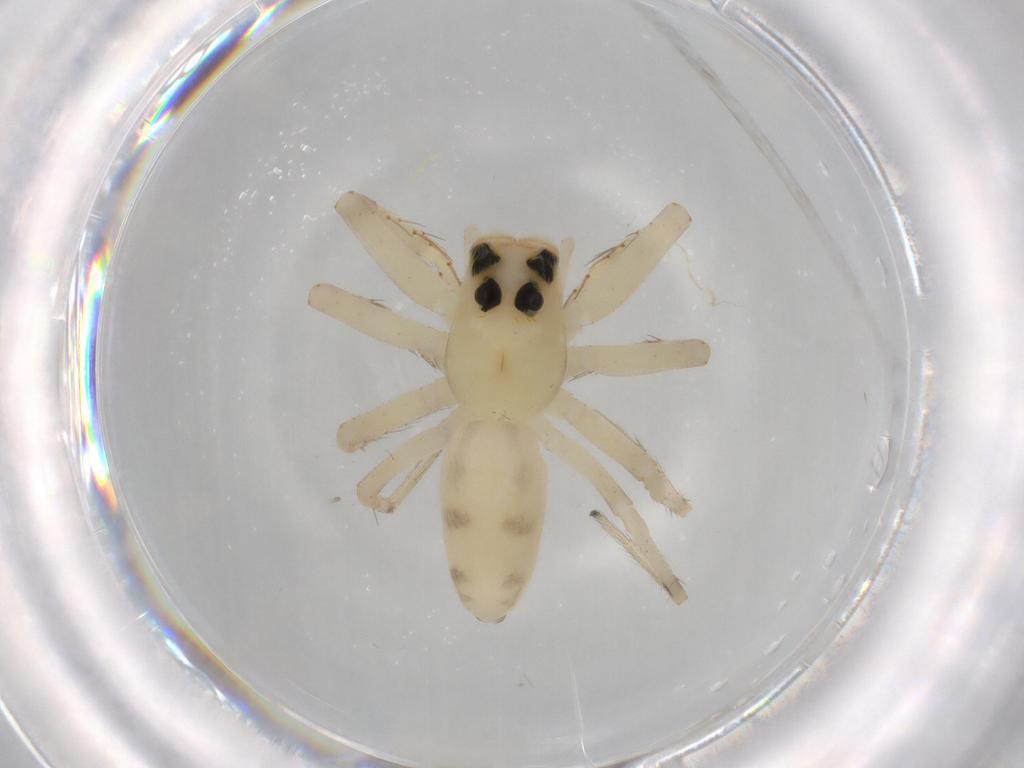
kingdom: Animalia
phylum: Arthropoda
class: Arachnida
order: Araneae
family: Salticidae
